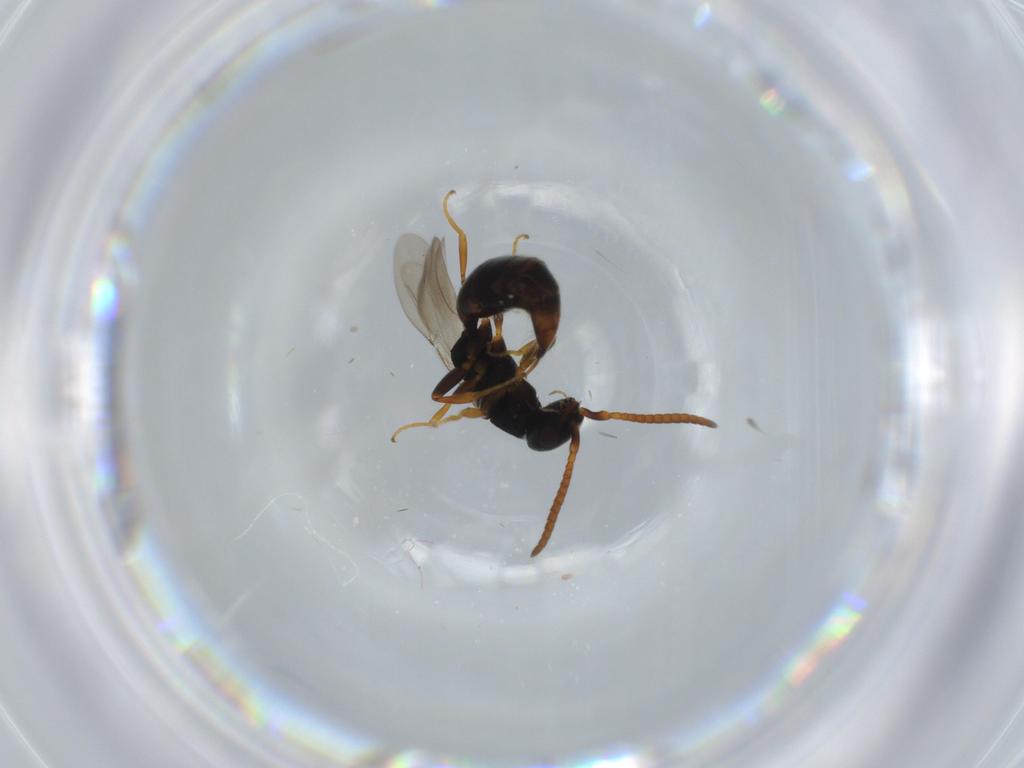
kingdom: Animalia
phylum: Arthropoda
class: Insecta
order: Hymenoptera
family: Bethylidae
